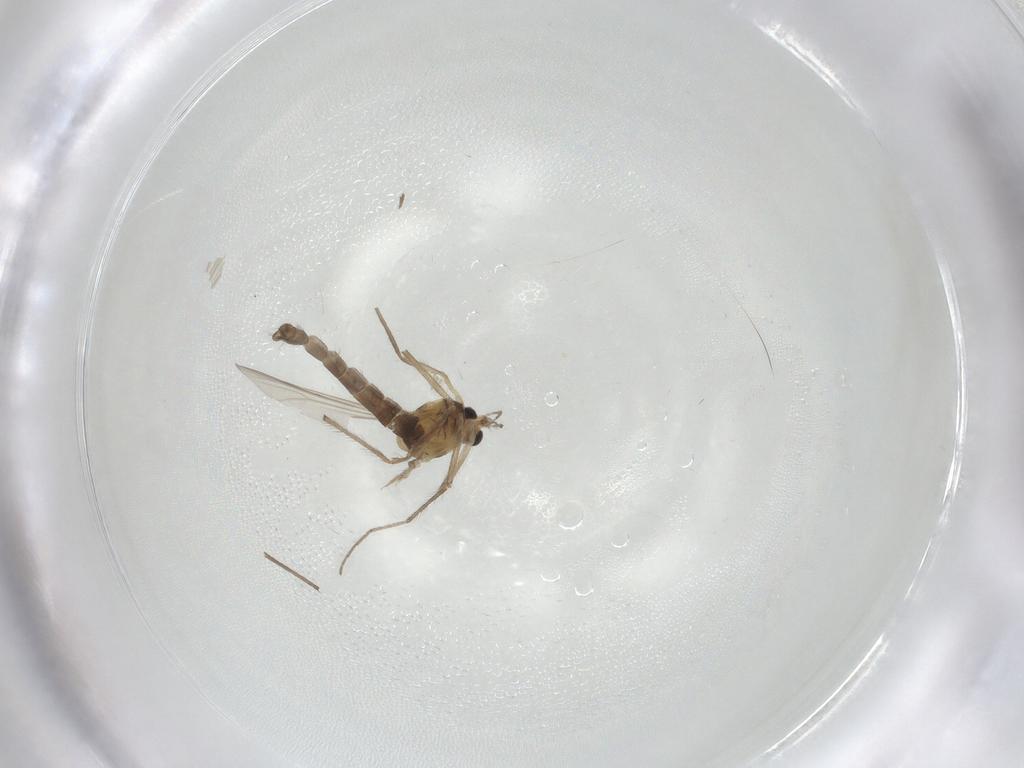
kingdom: Animalia
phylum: Arthropoda
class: Insecta
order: Diptera
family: Chironomidae
